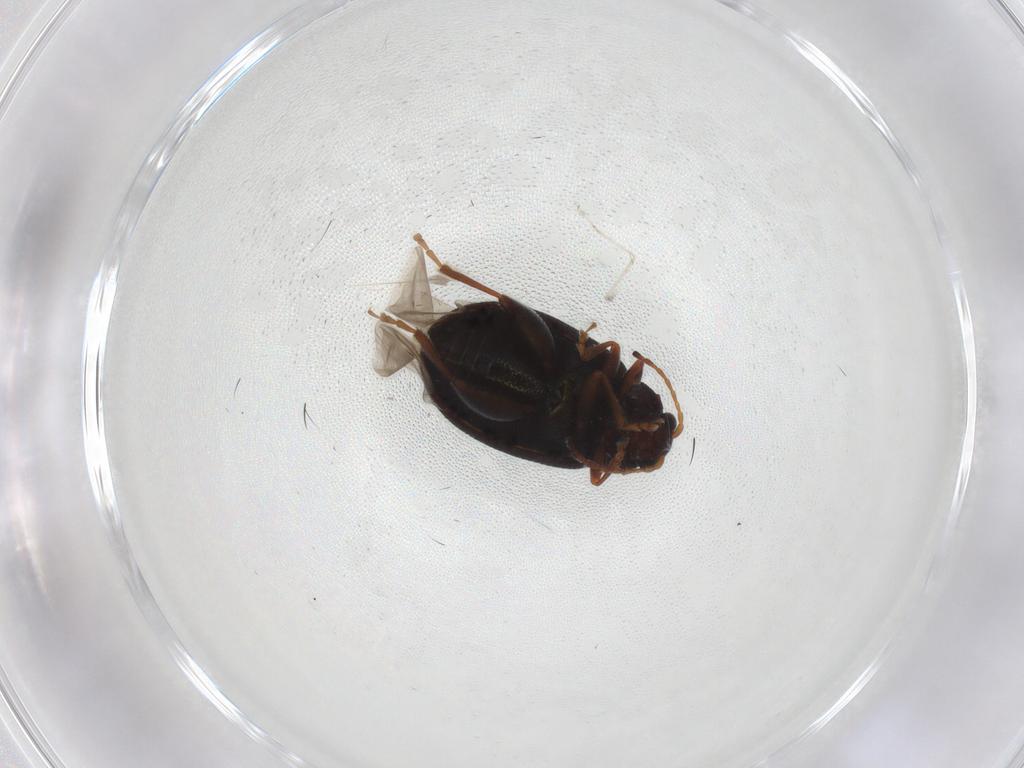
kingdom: Animalia
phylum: Arthropoda
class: Insecta
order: Coleoptera
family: Chrysomelidae
